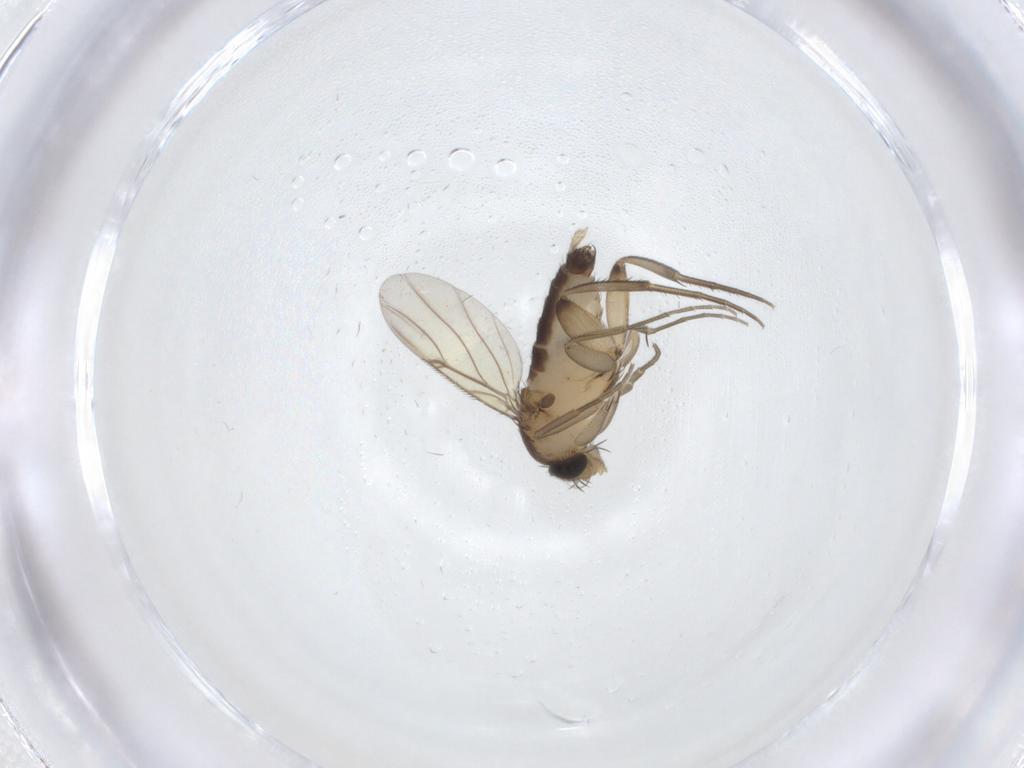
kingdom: Animalia
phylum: Arthropoda
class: Insecta
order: Diptera
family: Phoridae
